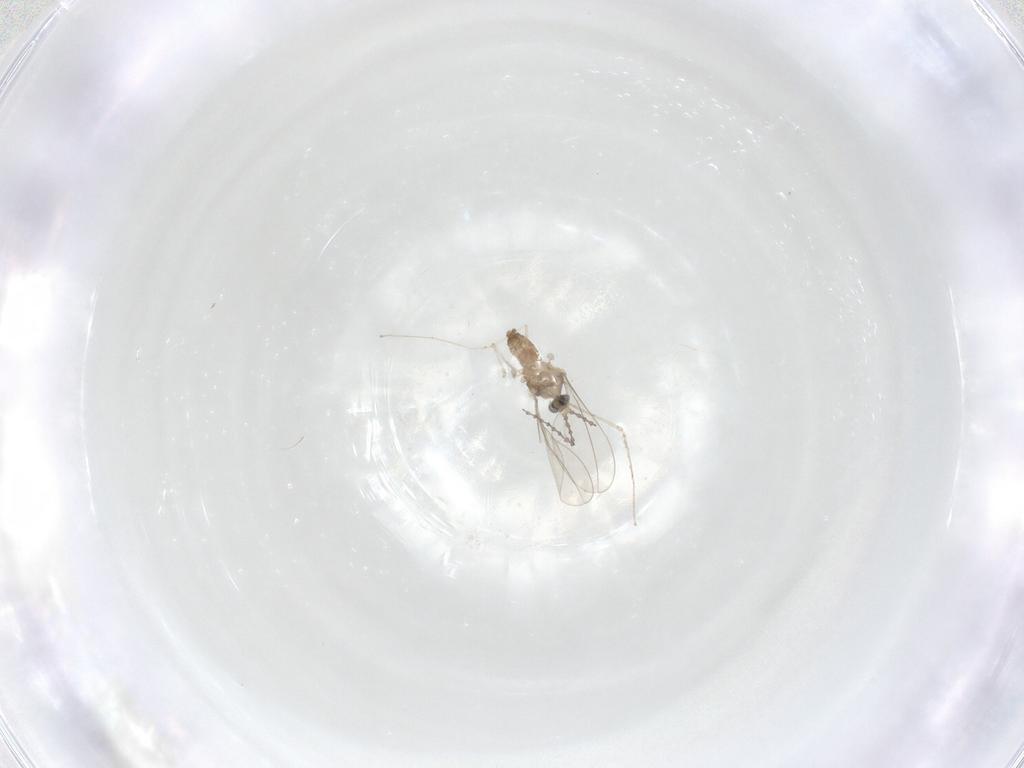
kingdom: Animalia
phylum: Arthropoda
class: Insecta
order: Diptera
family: Cecidomyiidae
